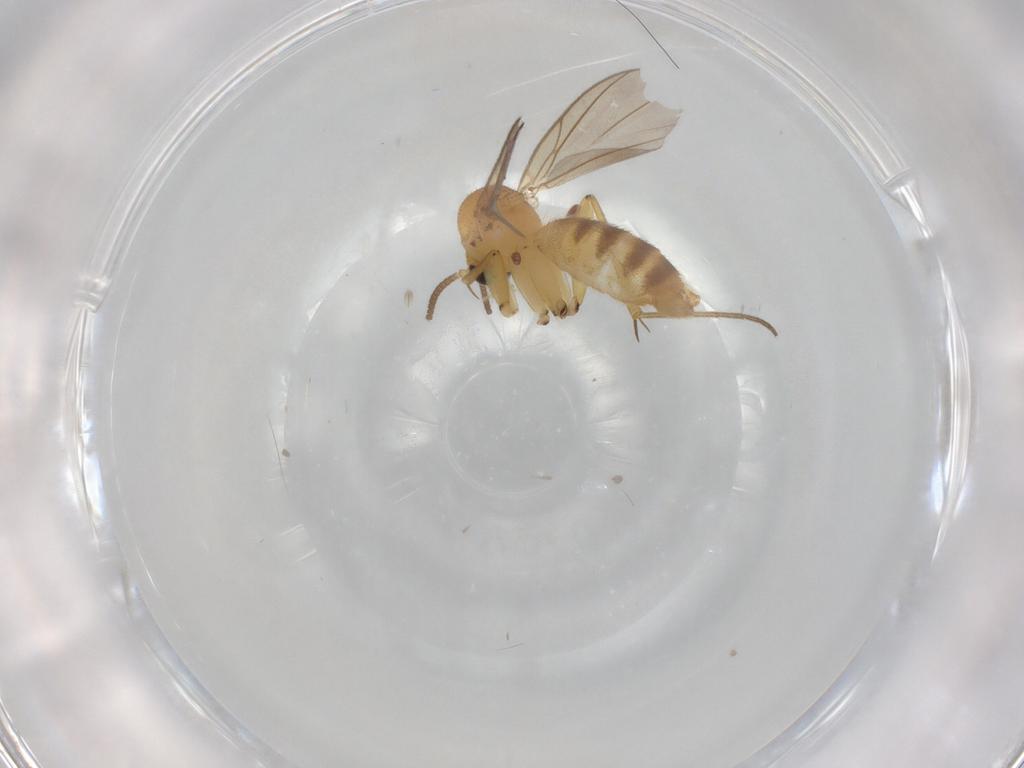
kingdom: Animalia
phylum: Arthropoda
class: Insecta
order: Diptera
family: Mycetophilidae
